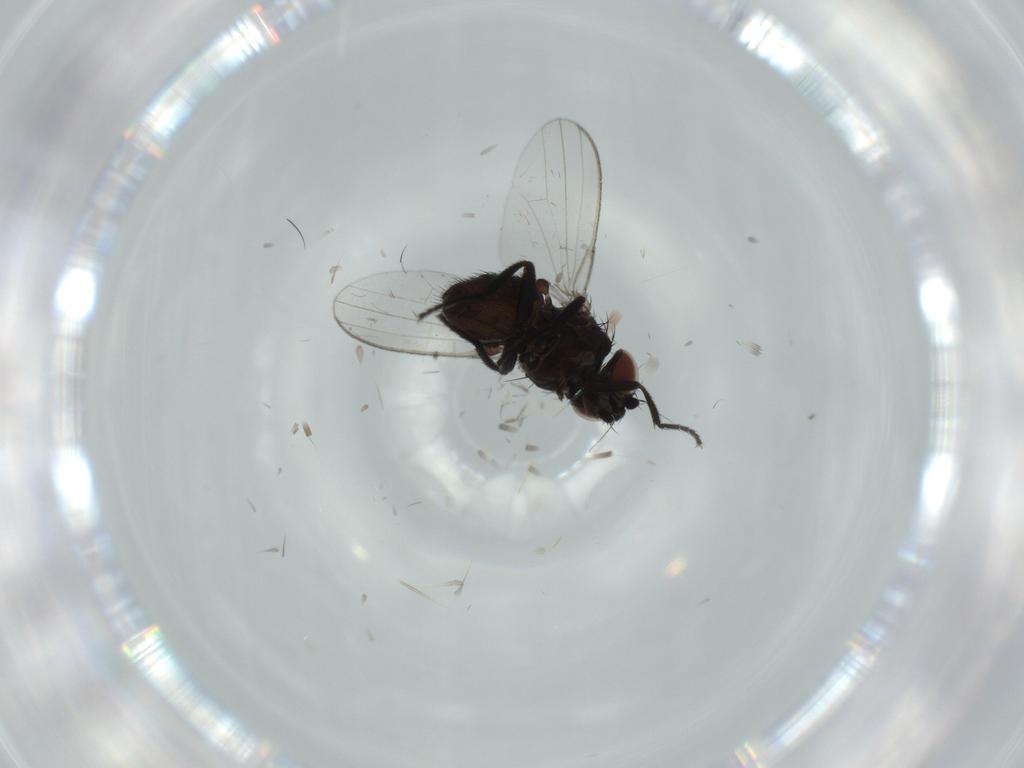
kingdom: Animalia
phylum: Arthropoda
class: Insecta
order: Diptera
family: Milichiidae
